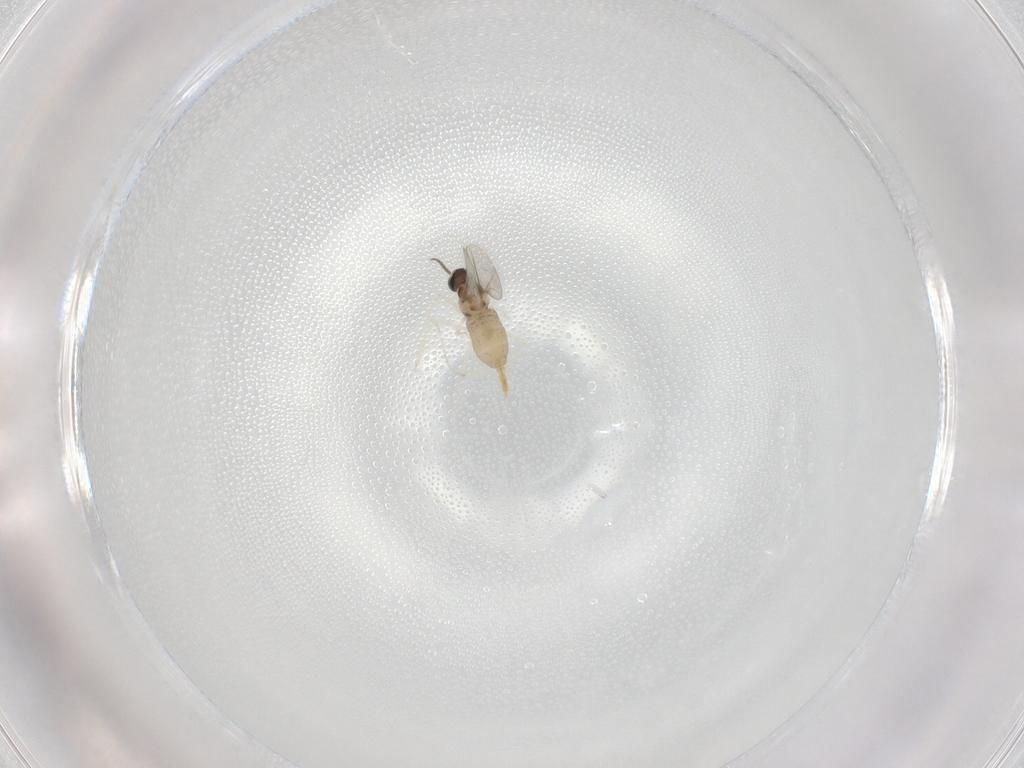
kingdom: Animalia
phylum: Arthropoda
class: Insecta
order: Diptera
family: Cecidomyiidae
